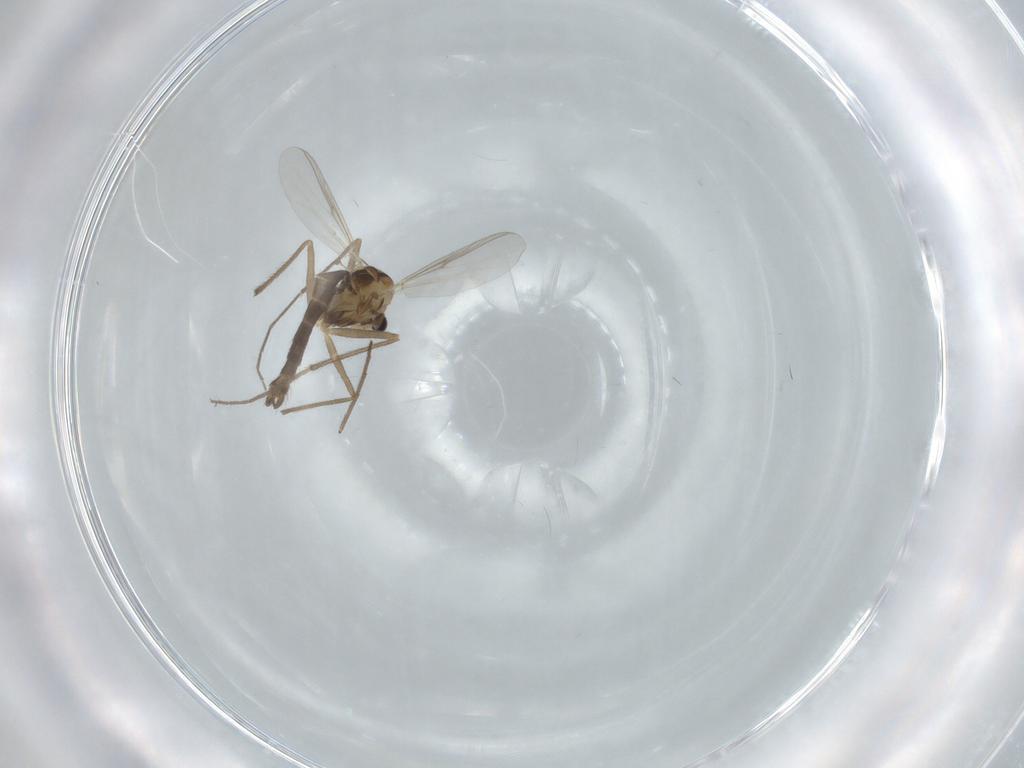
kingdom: Animalia
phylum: Arthropoda
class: Insecta
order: Diptera
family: Chironomidae
